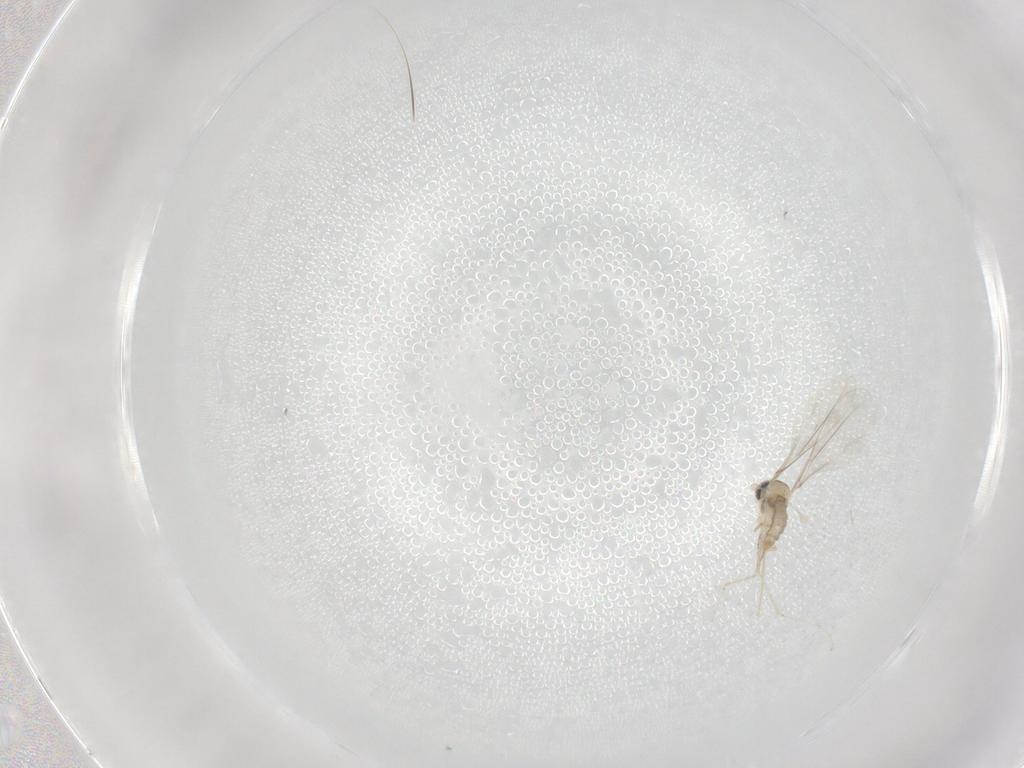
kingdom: Animalia
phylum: Arthropoda
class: Insecta
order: Diptera
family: Cecidomyiidae
